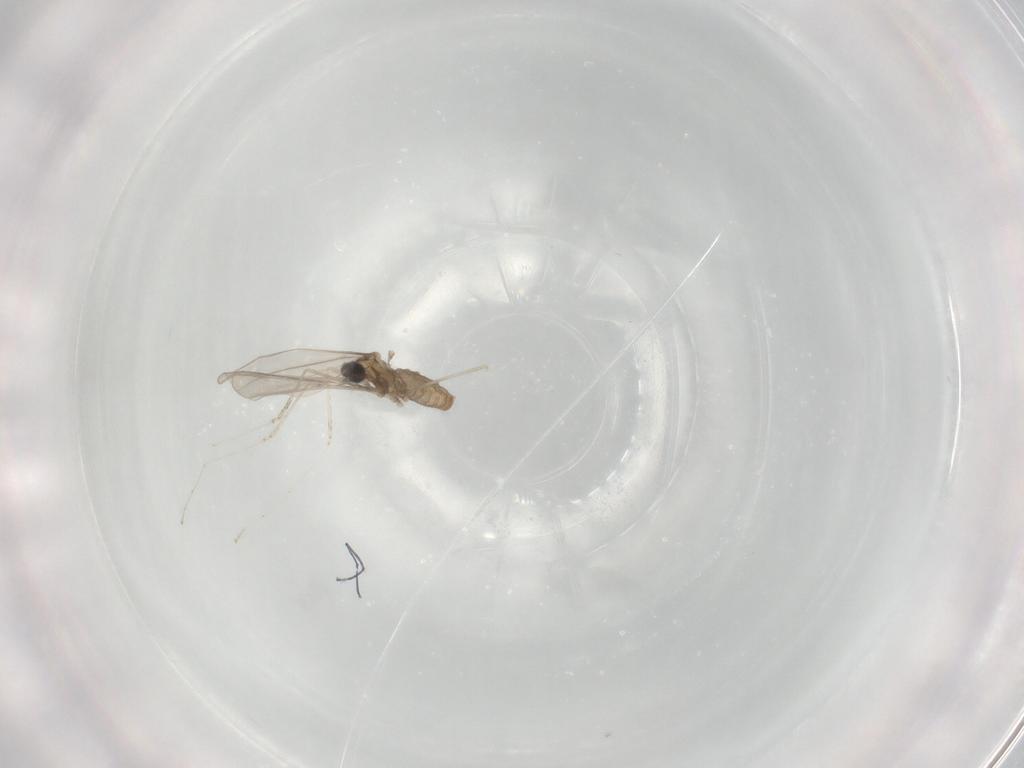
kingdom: Animalia
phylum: Arthropoda
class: Insecta
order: Diptera
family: Cecidomyiidae
